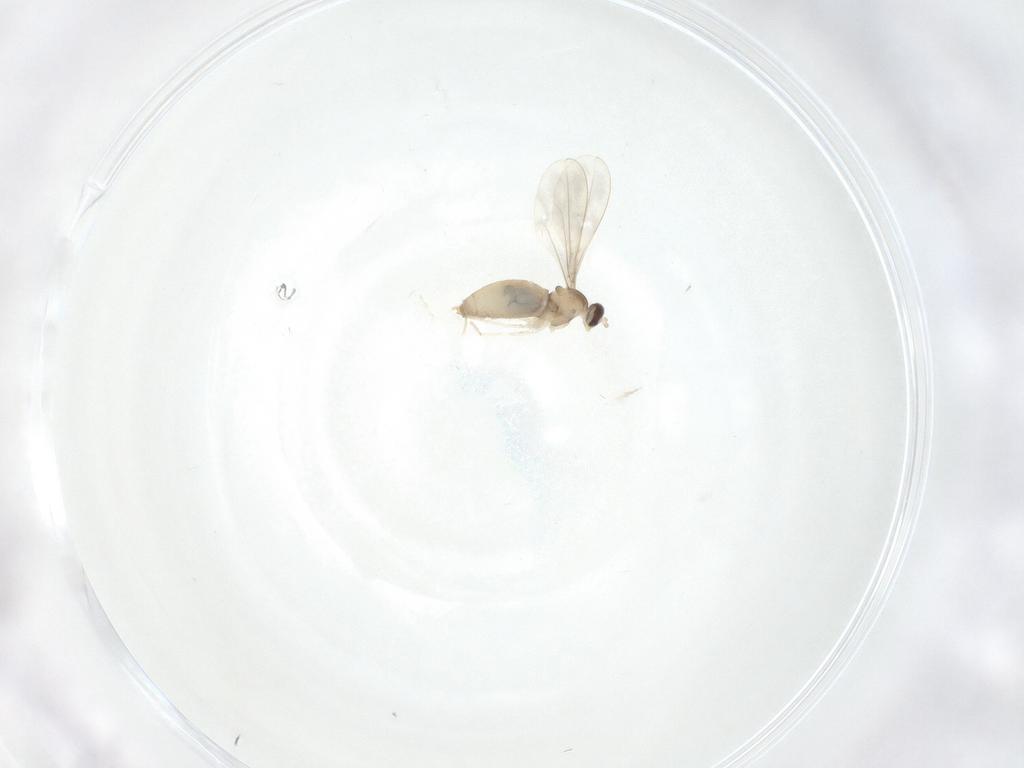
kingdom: Animalia
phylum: Arthropoda
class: Insecta
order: Diptera
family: Cecidomyiidae
